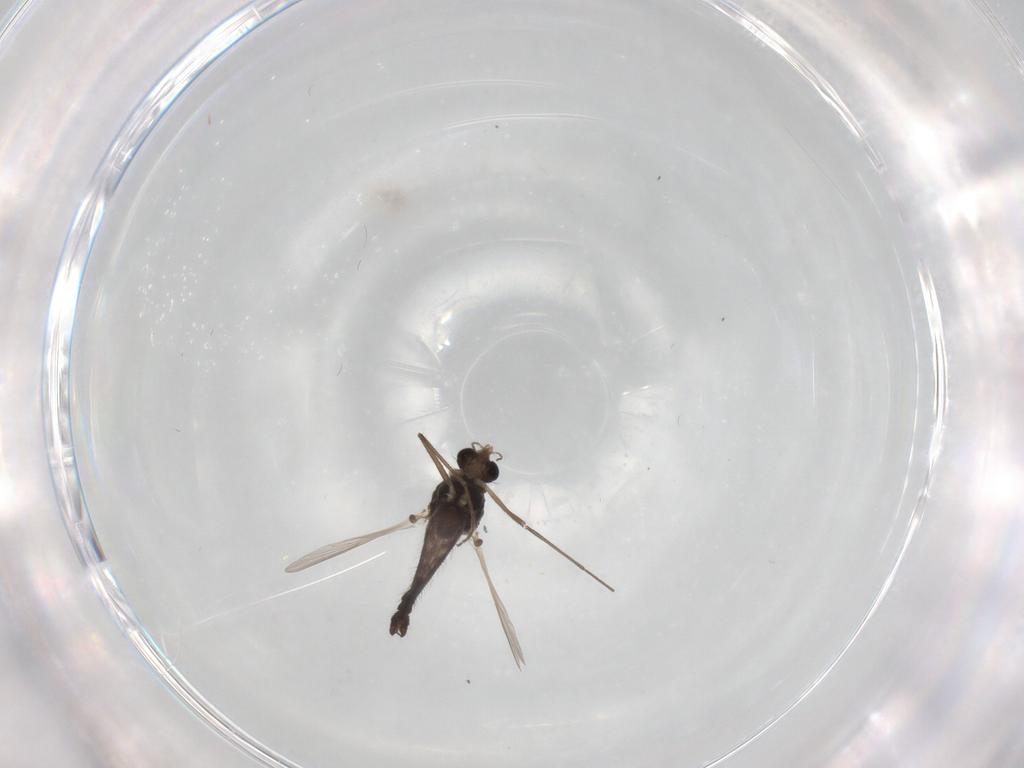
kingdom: Animalia
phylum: Arthropoda
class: Insecta
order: Diptera
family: Chironomidae
